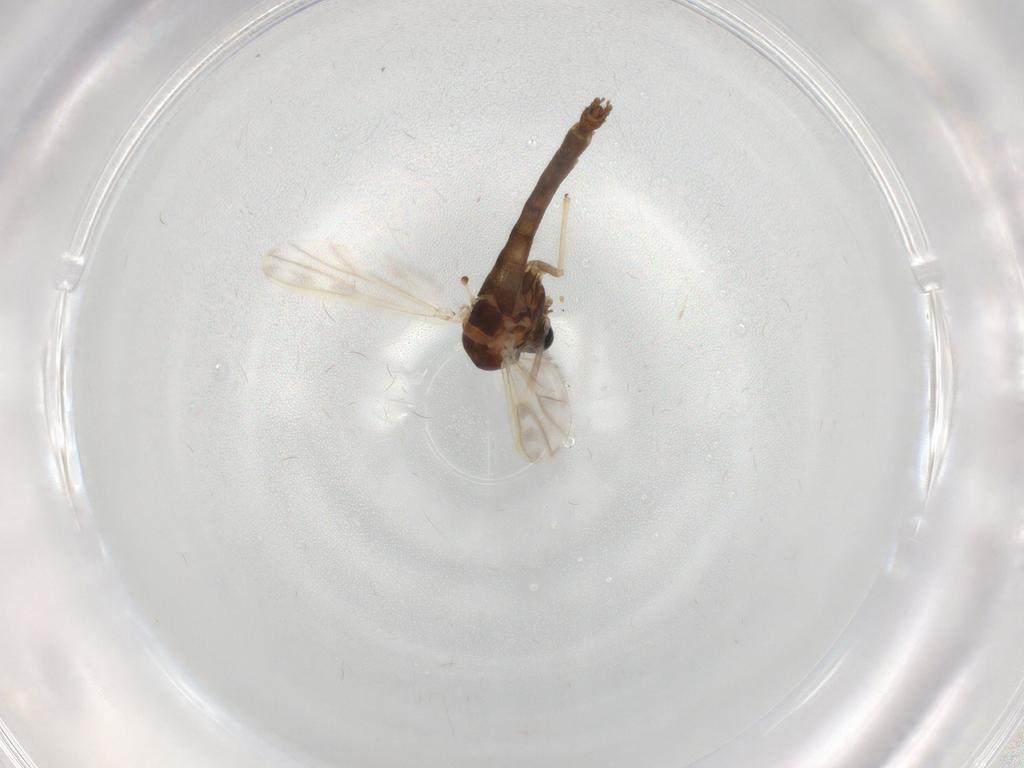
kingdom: Animalia
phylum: Arthropoda
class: Insecta
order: Diptera
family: Chironomidae
